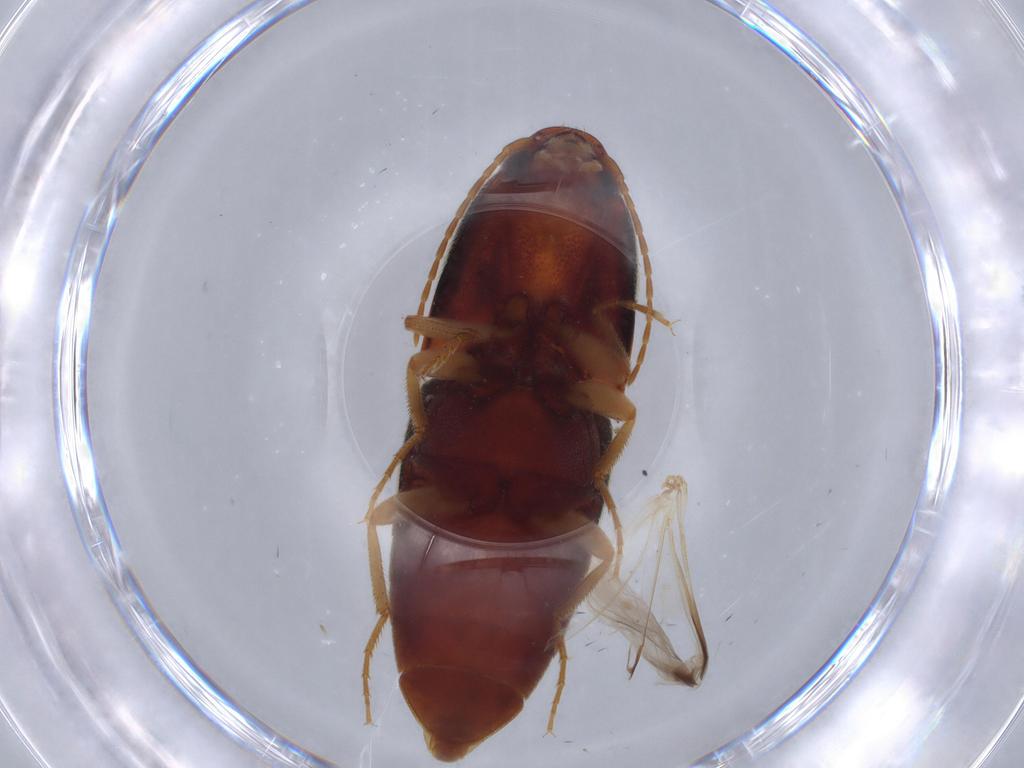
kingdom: Animalia
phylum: Arthropoda
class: Insecta
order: Coleoptera
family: Elateridae
